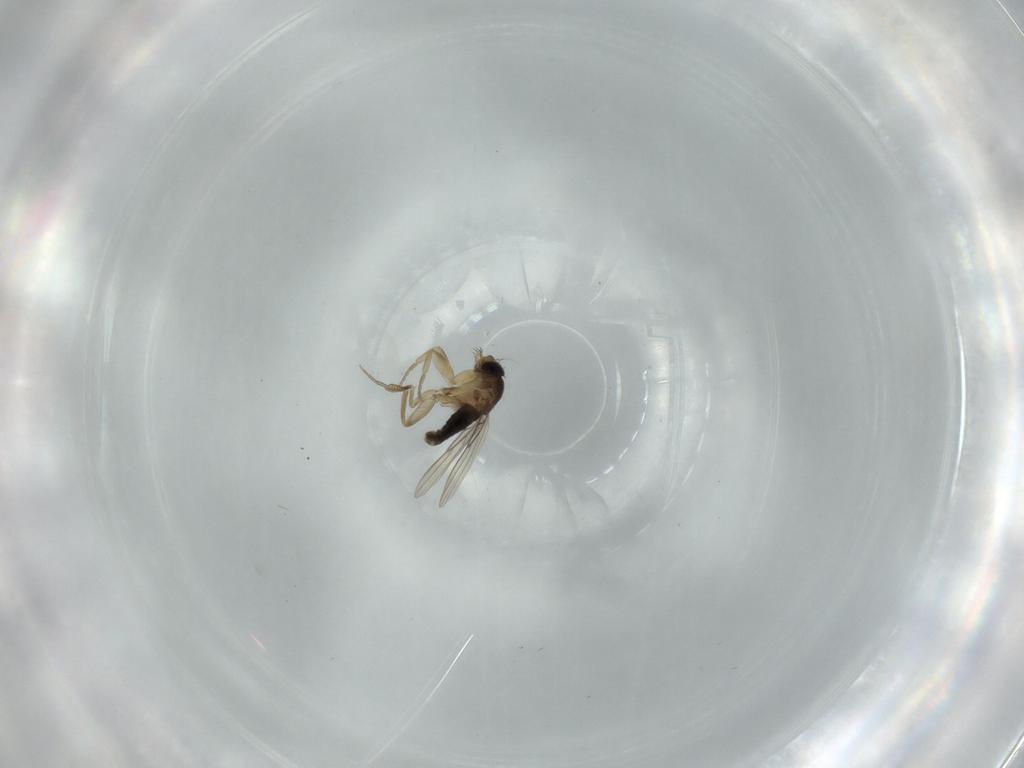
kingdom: Animalia
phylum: Arthropoda
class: Insecta
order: Diptera
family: Phoridae
